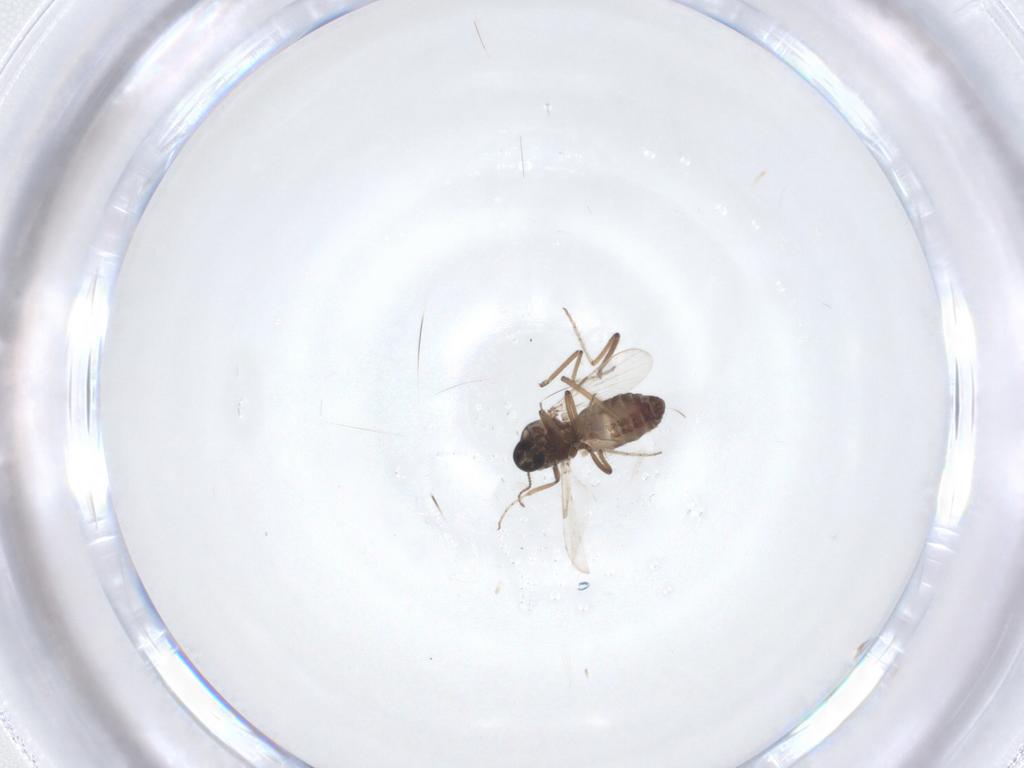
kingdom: Animalia
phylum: Arthropoda
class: Insecta
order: Diptera
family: Ceratopogonidae
